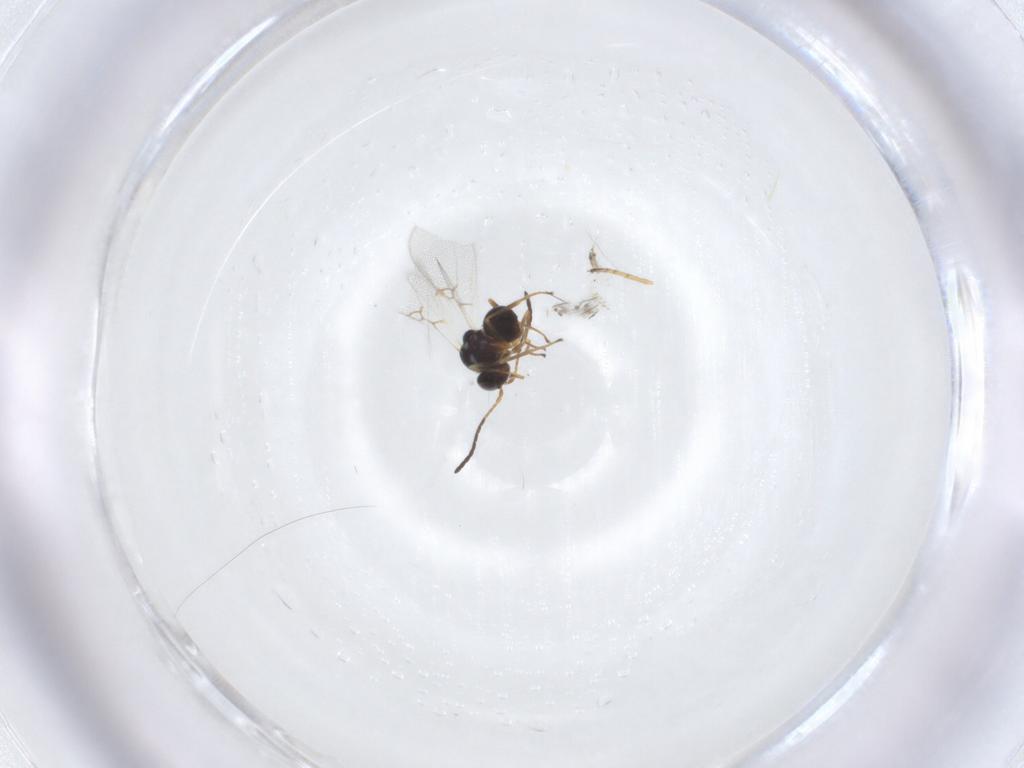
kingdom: Animalia
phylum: Arthropoda
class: Insecta
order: Hymenoptera
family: Figitidae
